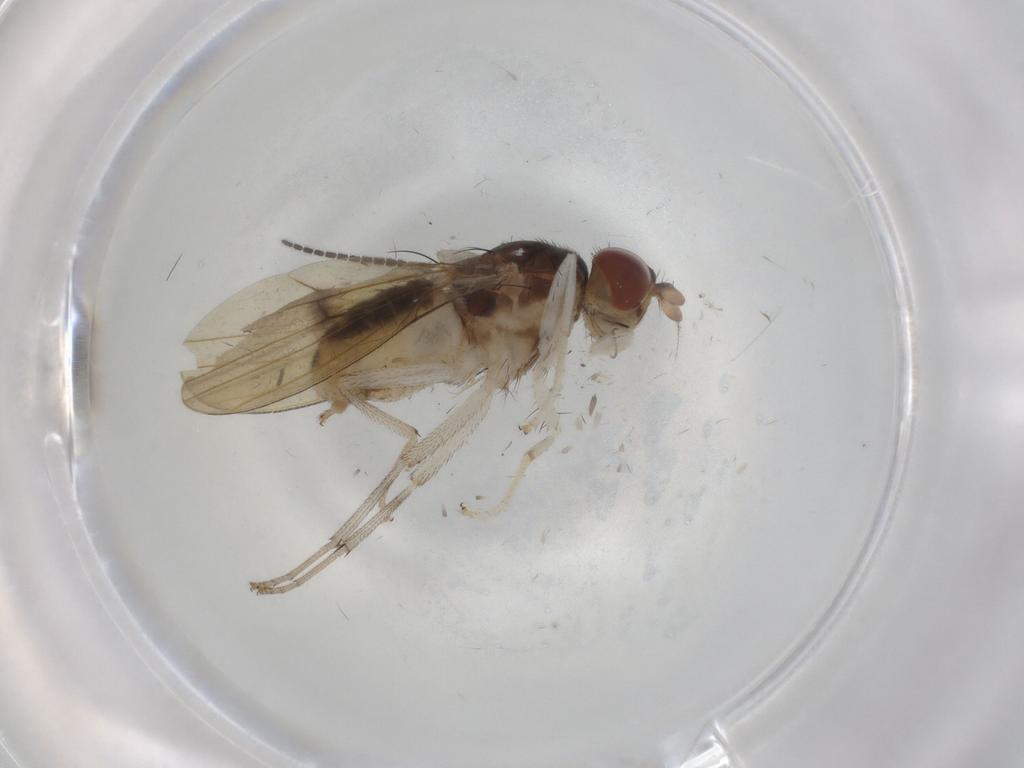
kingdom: Animalia
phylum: Arthropoda
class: Insecta
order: Diptera
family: Sciaridae
